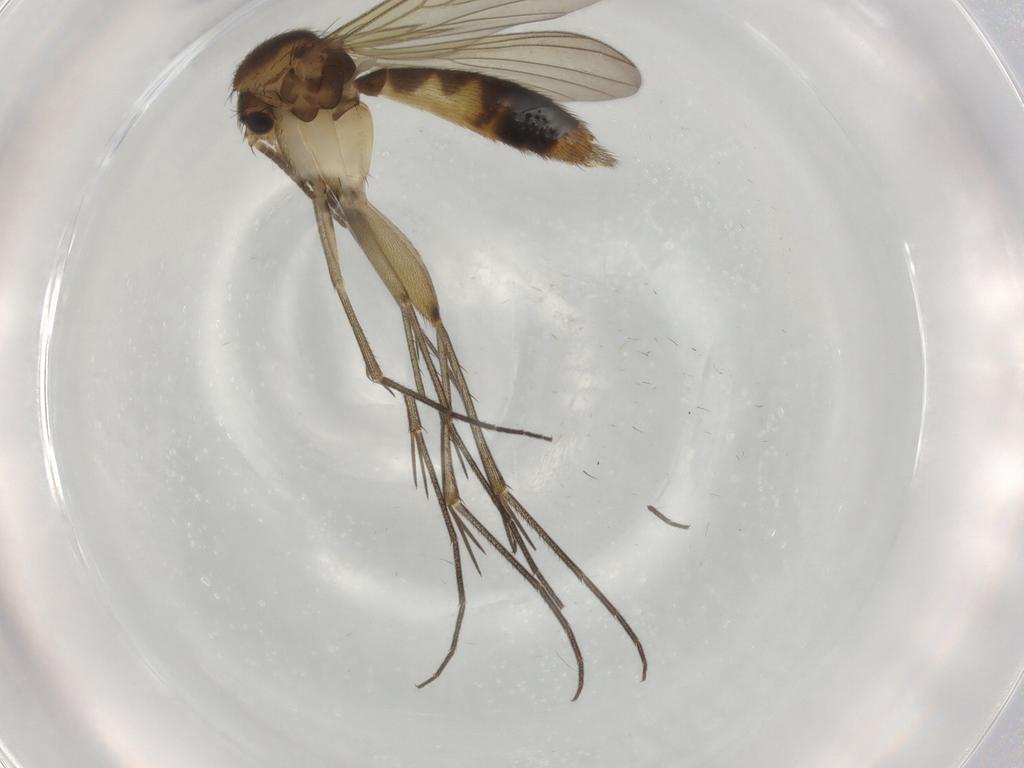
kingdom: Animalia
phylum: Arthropoda
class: Insecta
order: Diptera
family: Mycetophilidae
